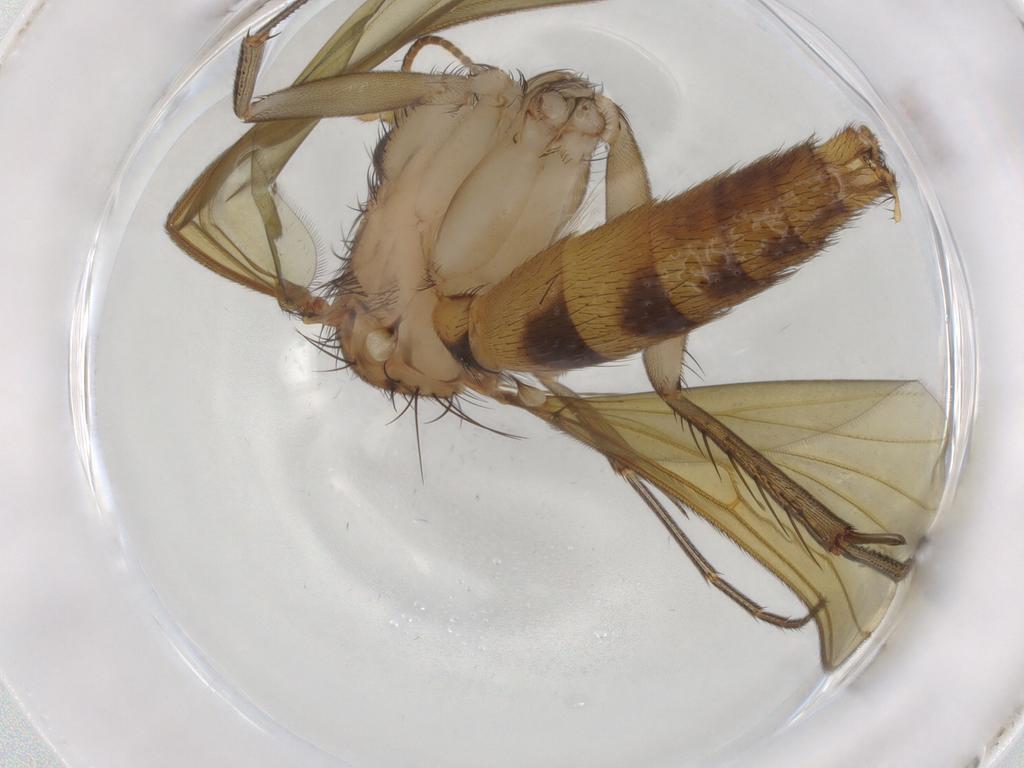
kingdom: Animalia
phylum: Arthropoda
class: Insecta
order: Diptera
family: Mycetophilidae
